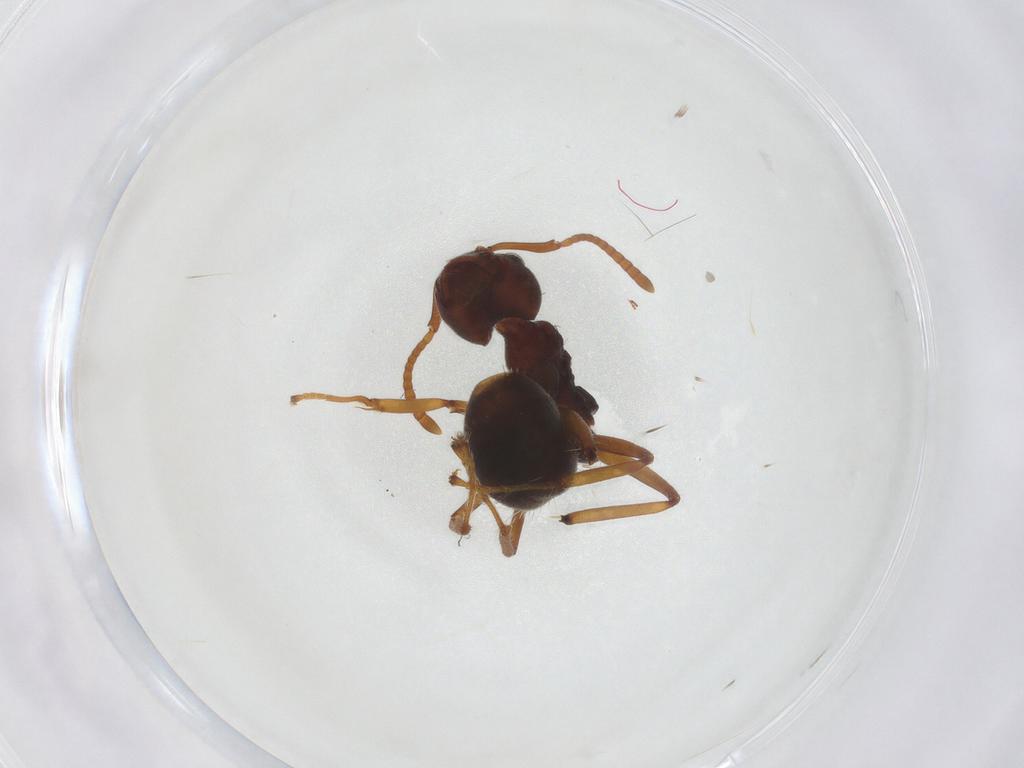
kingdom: Animalia
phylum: Arthropoda
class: Insecta
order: Hymenoptera
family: Formicidae
